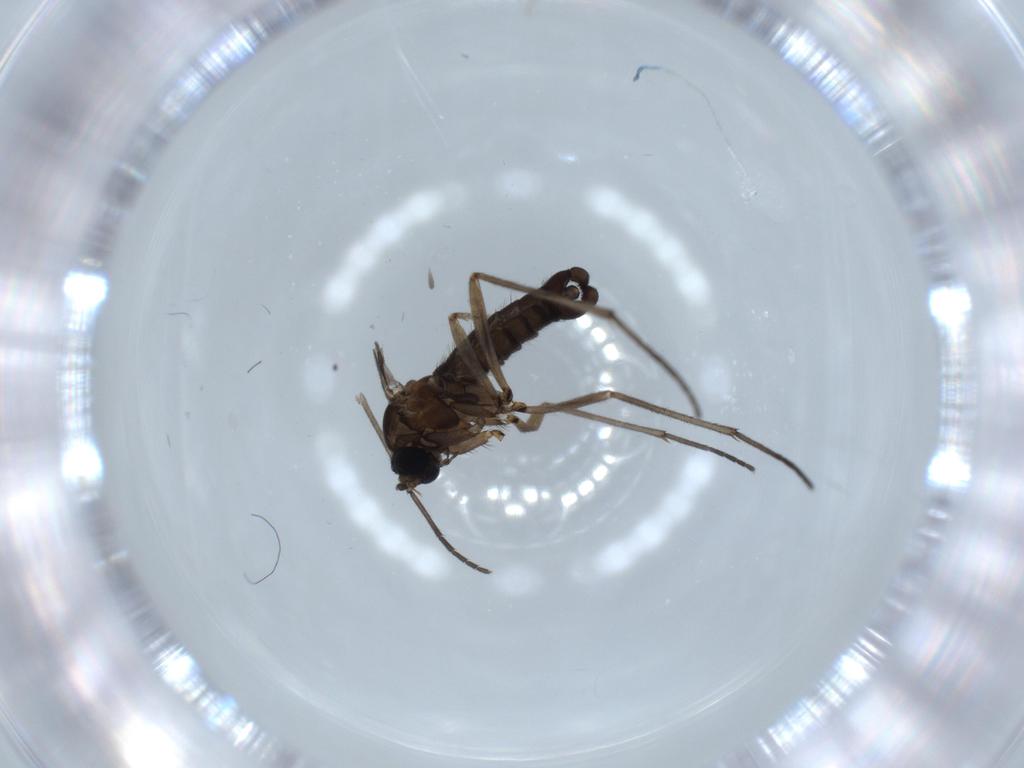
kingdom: Animalia
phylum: Arthropoda
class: Insecta
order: Diptera
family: Sciaridae
